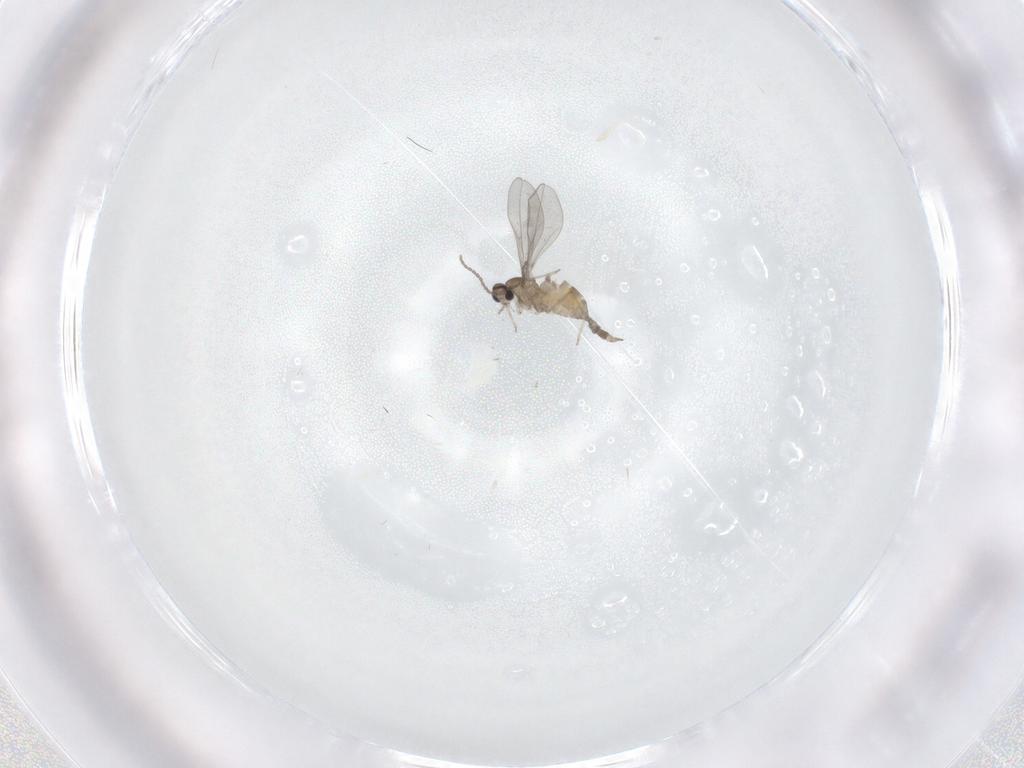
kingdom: Animalia
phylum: Arthropoda
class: Insecta
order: Diptera
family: Cecidomyiidae
